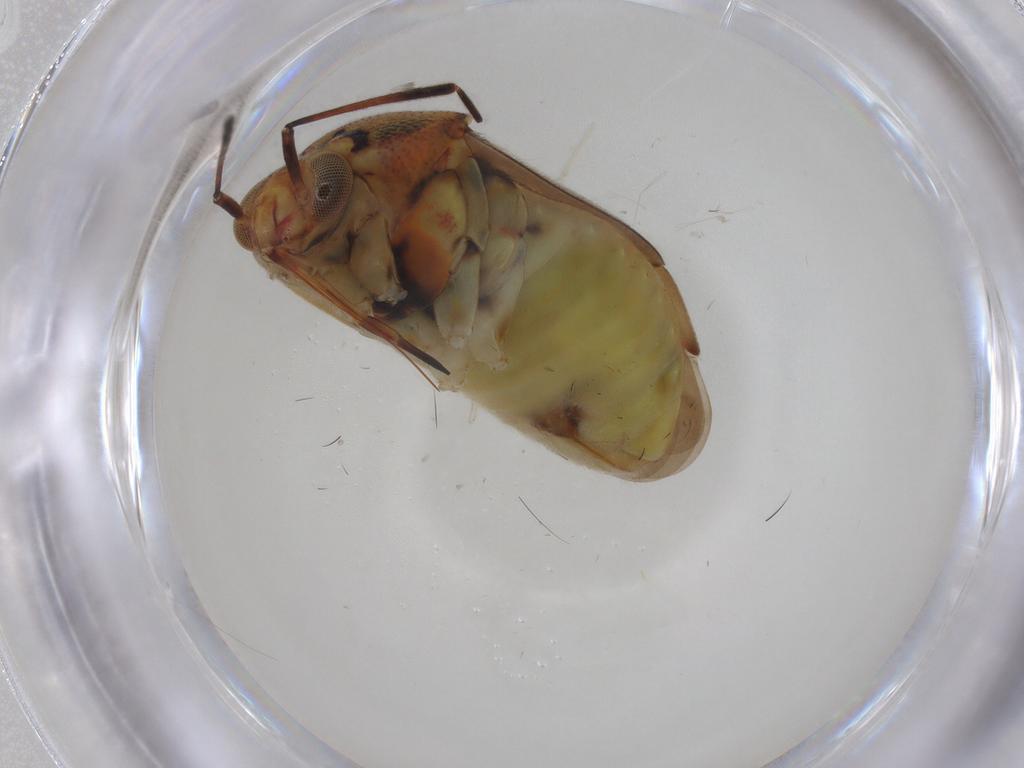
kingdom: Animalia
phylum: Arthropoda
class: Insecta
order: Hemiptera
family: Miridae
